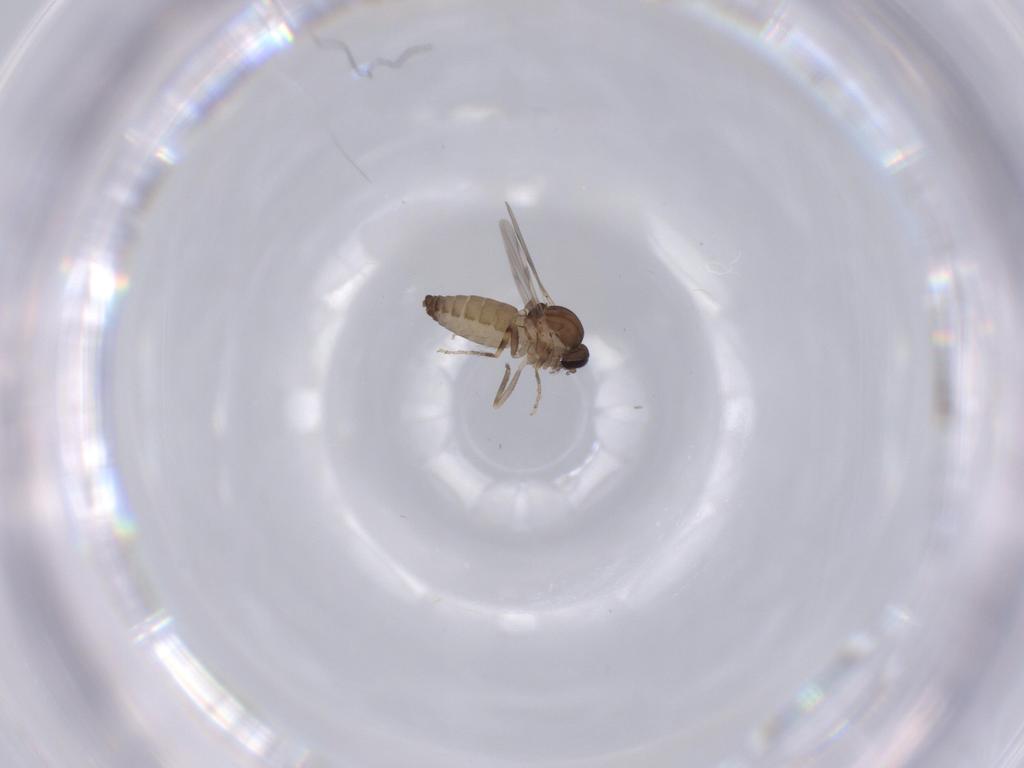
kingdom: Animalia
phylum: Arthropoda
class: Insecta
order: Diptera
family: Ceratopogonidae
